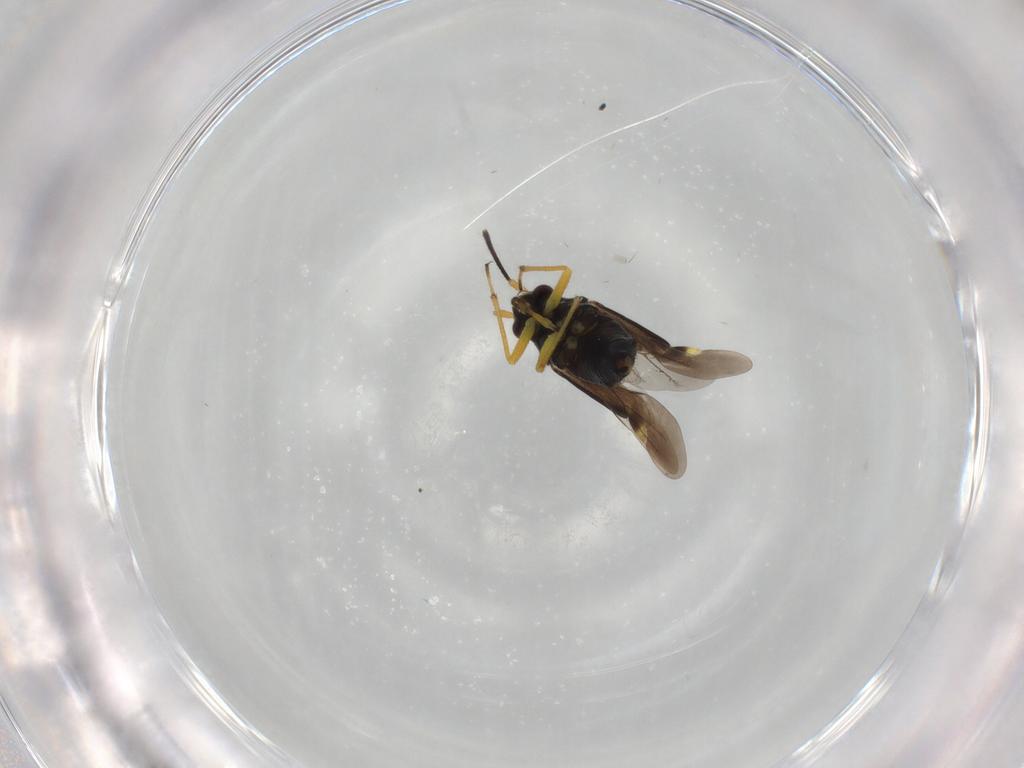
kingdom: Animalia
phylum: Arthropoda
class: Insecta
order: Hemiptera
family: Miridae
